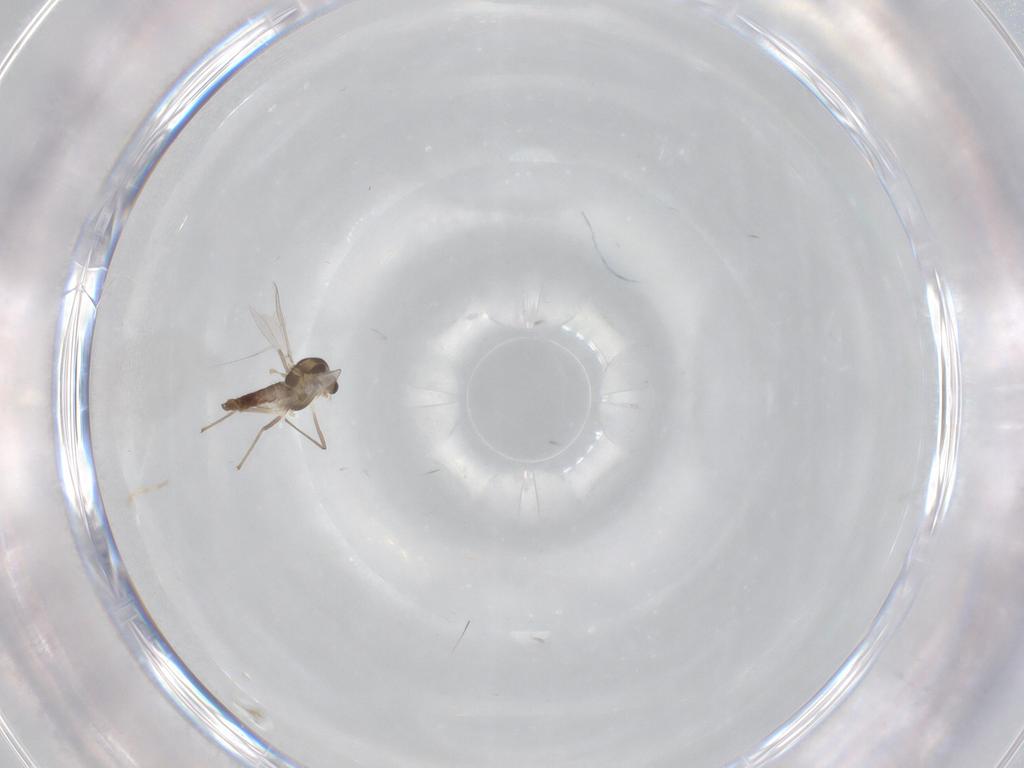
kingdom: Animalia
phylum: Arthropoda
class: Insecta
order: Diptera
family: Chironomidae
